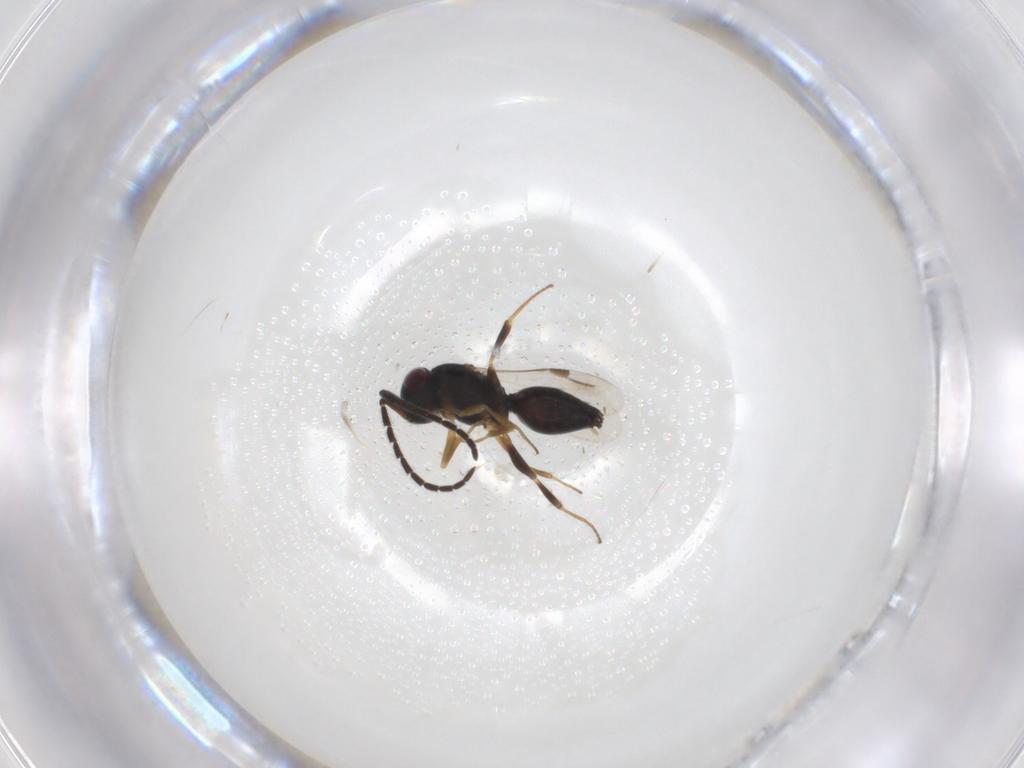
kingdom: Animalia
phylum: Arthropoda
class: Insecta
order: Hymenoptera
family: Megaspilidae
